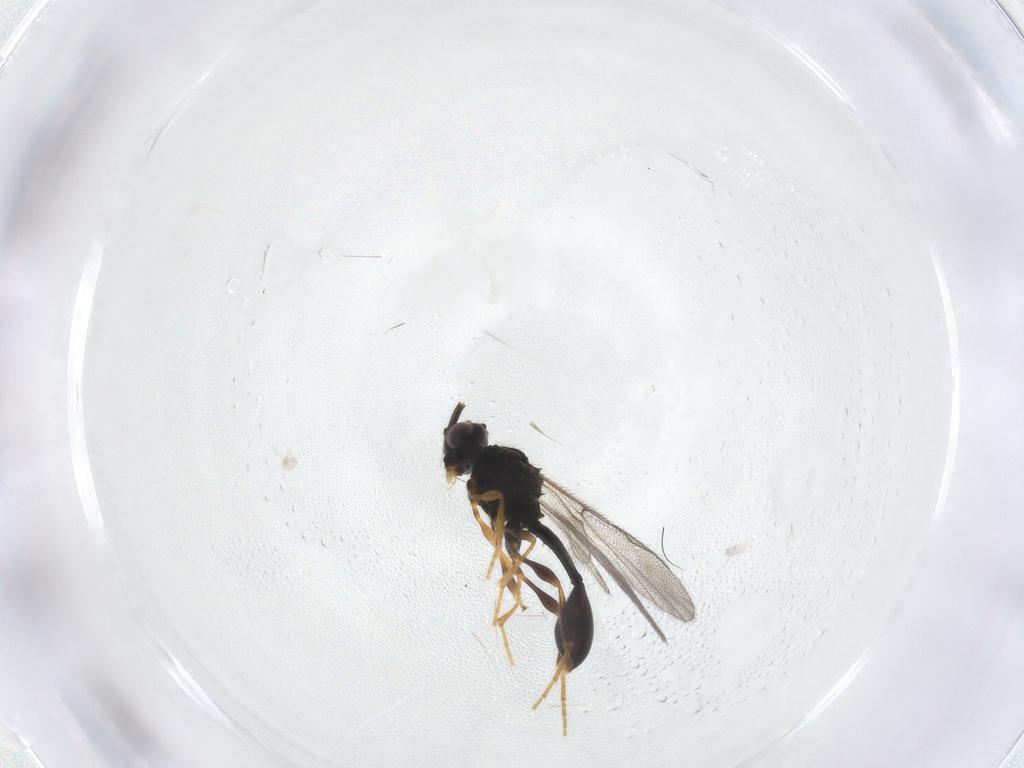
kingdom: Animalia
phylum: Arthropoda
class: Insecta
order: Hymenoptera
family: Diapriidae
